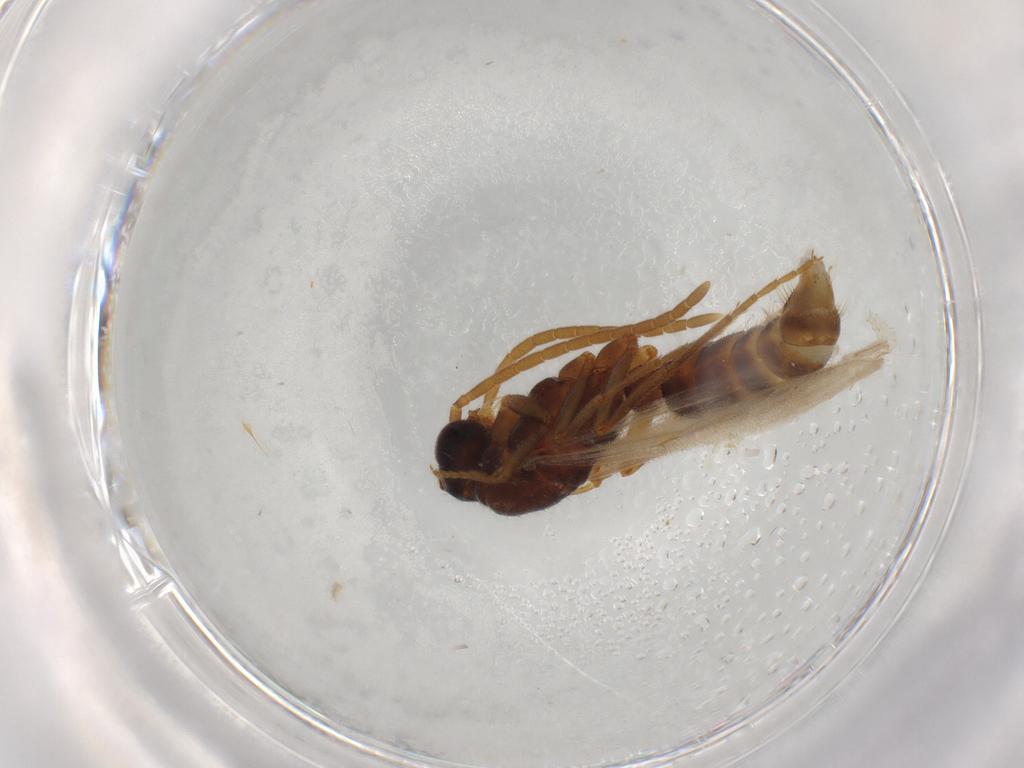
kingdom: Animalia
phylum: Arthropoda
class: Insecta
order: Hymenoptera
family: Formicidae
